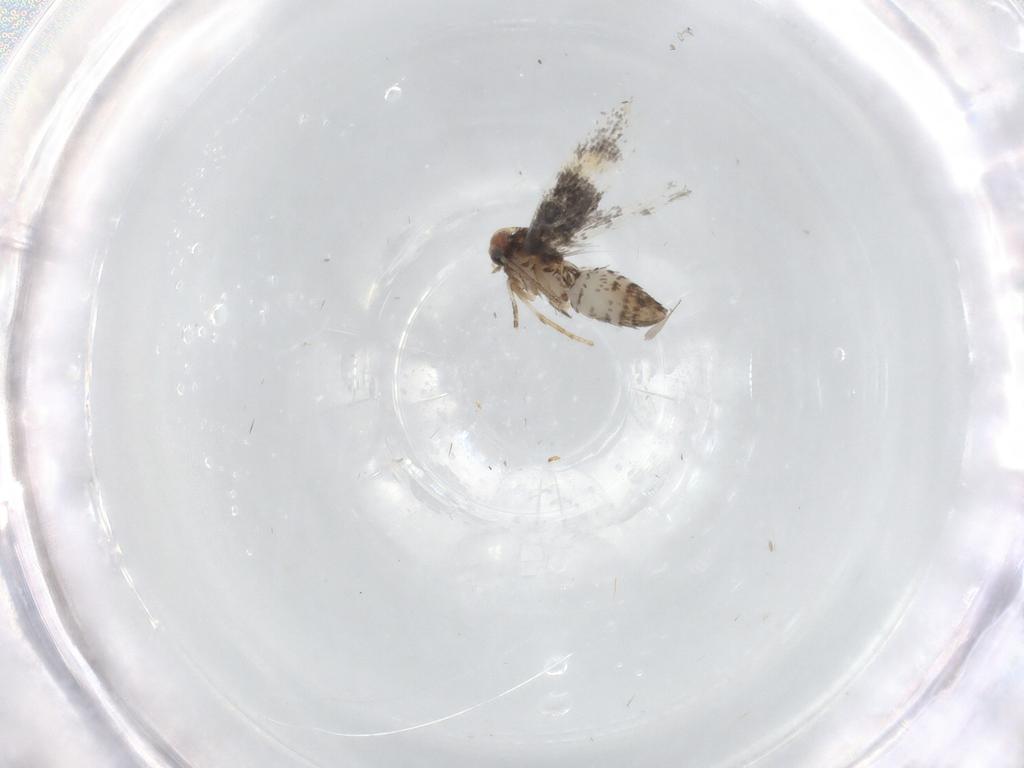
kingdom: Animalia
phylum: Arthropoda
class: Insecta
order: Lepidoptera
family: Nepticulidae
